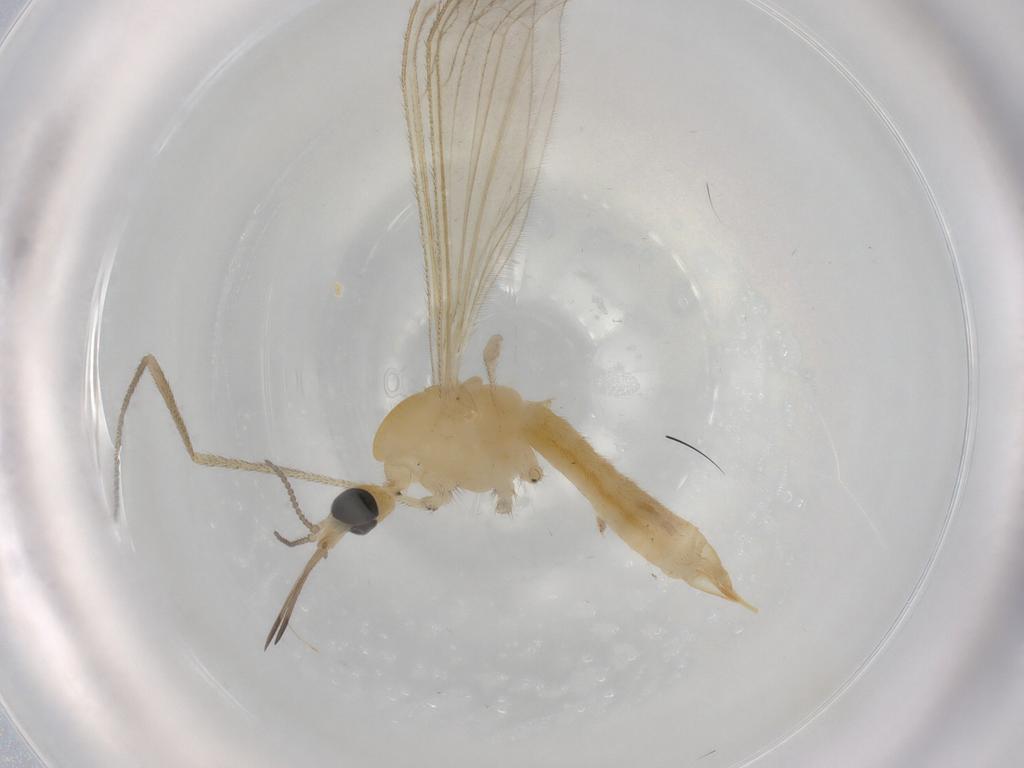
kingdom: Animalia
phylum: Arthropoda
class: Insecta
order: Diptera
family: Limoniidae
